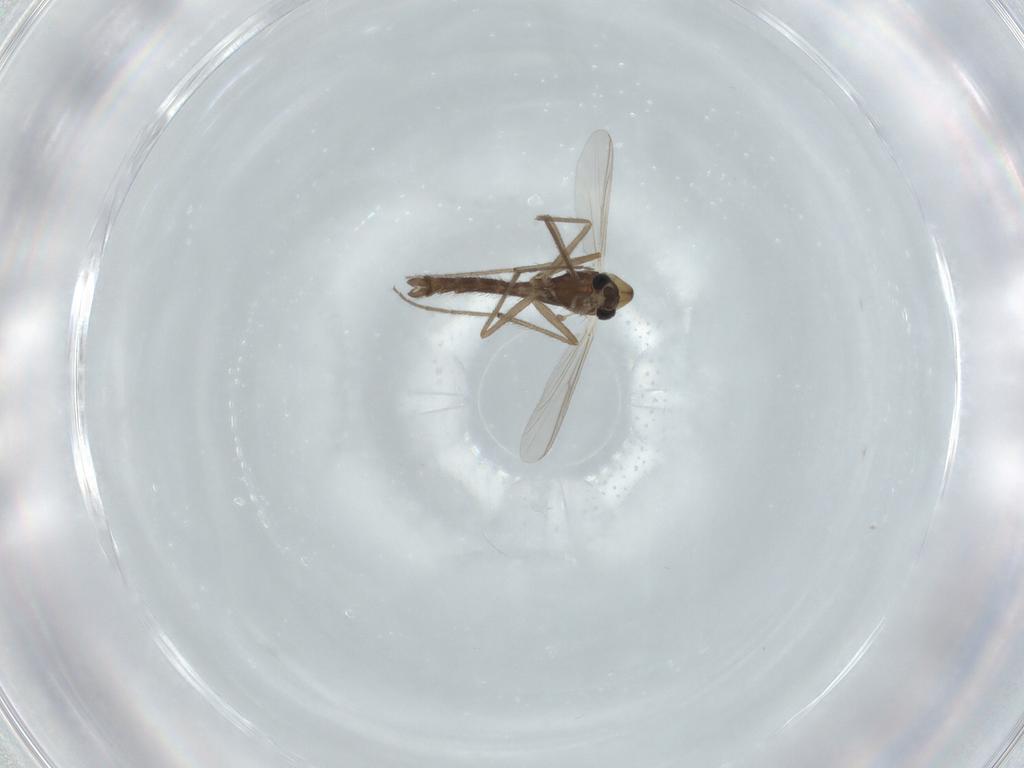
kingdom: Animalia
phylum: Arthropoda
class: Insecta
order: Diptera
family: Chironomidae
